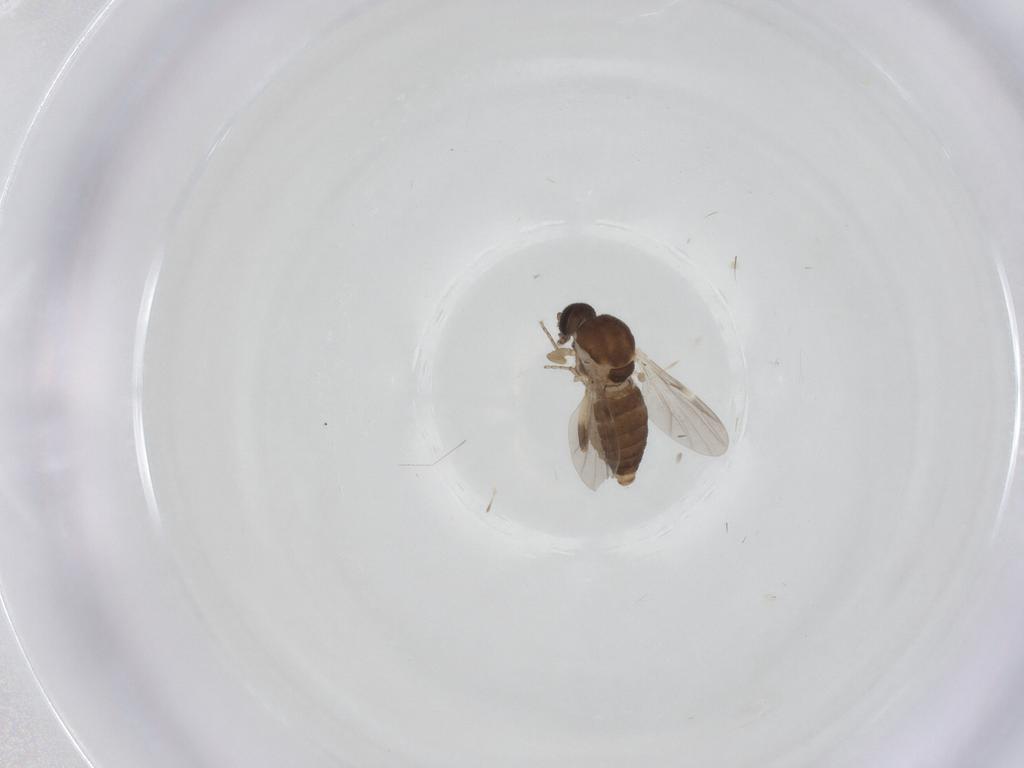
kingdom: Animalia
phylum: Arthropoda
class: Insecta
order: Diptera
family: Ceratopogonidae
